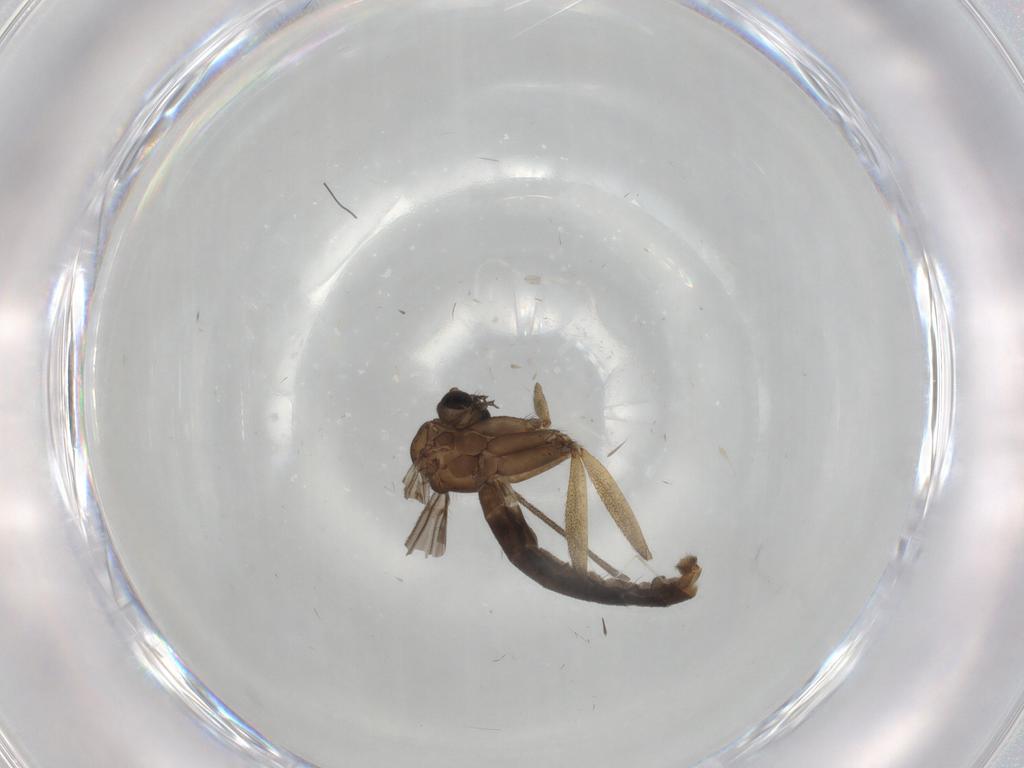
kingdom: Animalia
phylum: Arthropoda
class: Insecta
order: Diptera
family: Ditomyiidae
